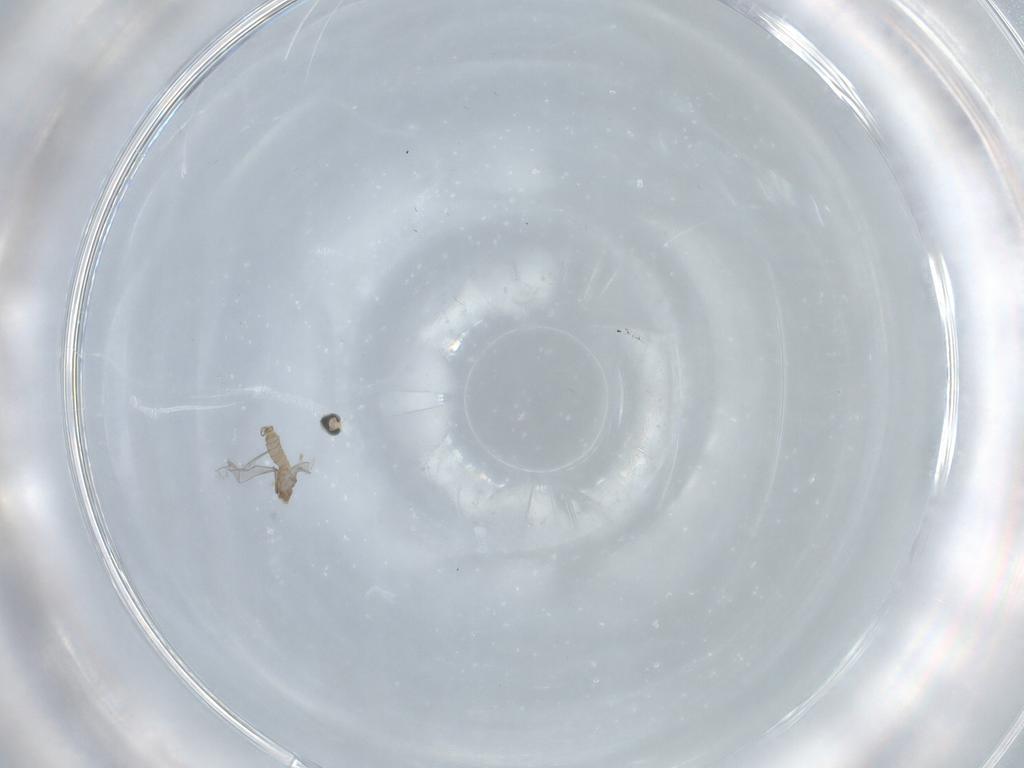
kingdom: Animalia
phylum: Arthropoda
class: Insecta
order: Diptera
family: Cecidomyiidae
